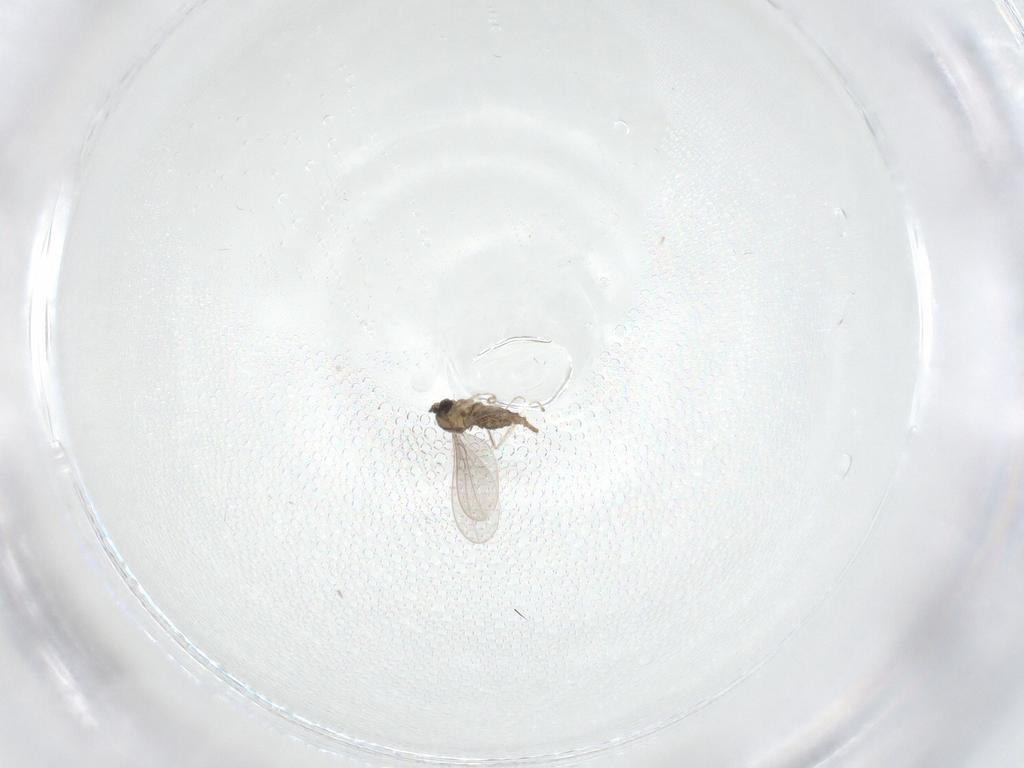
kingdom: Animalia
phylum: Arthropoda
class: Insecta
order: Diptera
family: Cecidomyiidae
